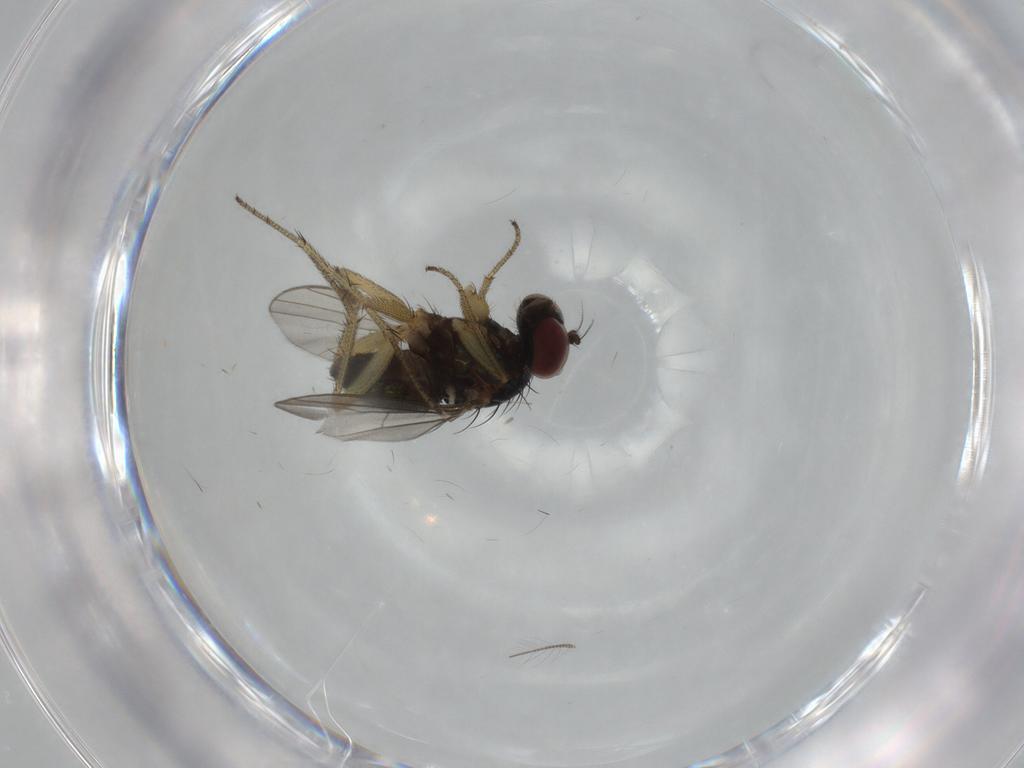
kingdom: Animalia
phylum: Arthropoda
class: Insecta
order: Diptera
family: Dolichopodidae
